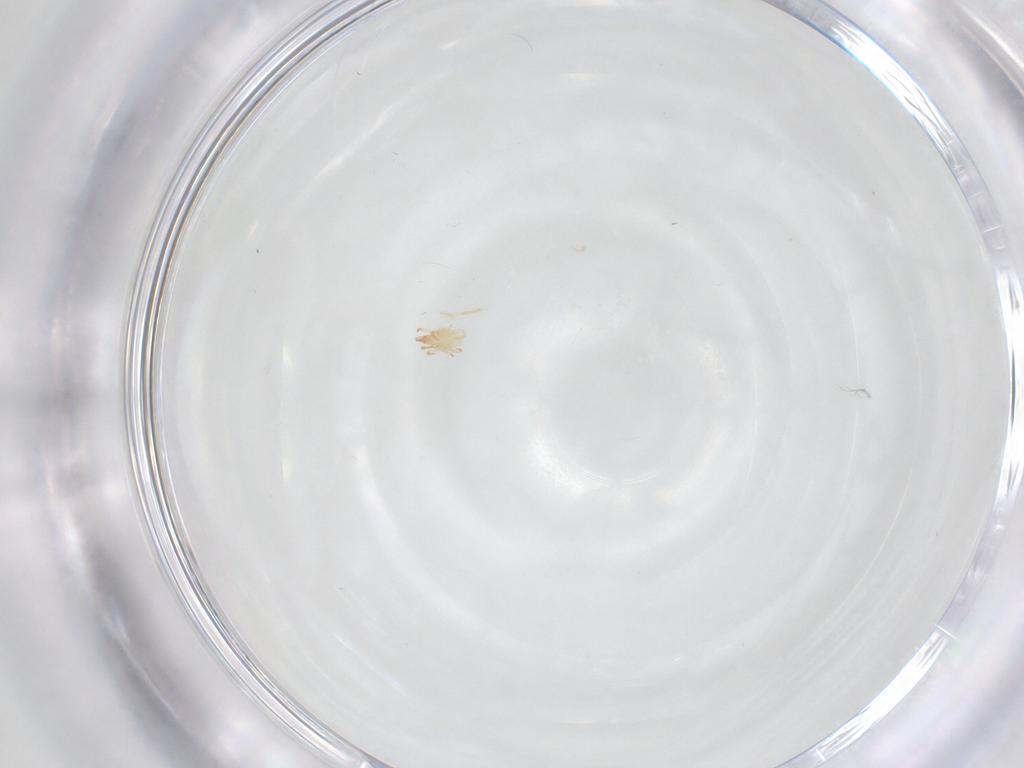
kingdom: Animalia
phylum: Arthropoda
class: Arachnida
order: Trombidiformes
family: Cunaxidae
